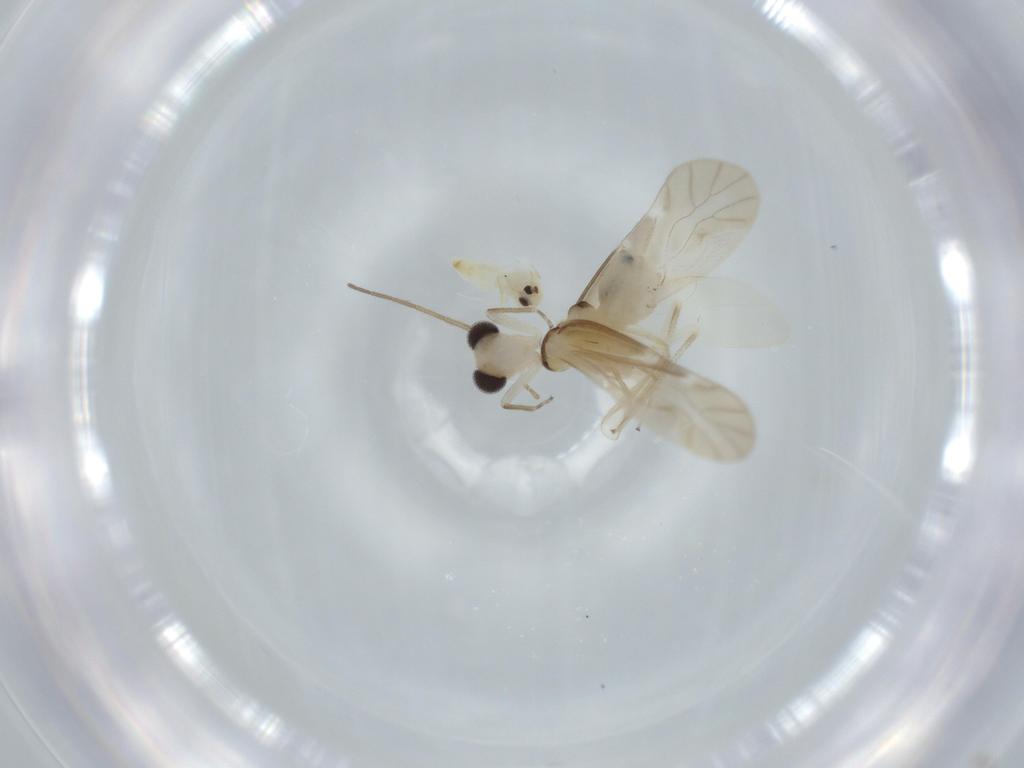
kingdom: Animalia
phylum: Arthropoda
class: Insecta
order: Psocodea
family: Caeciliusidae
